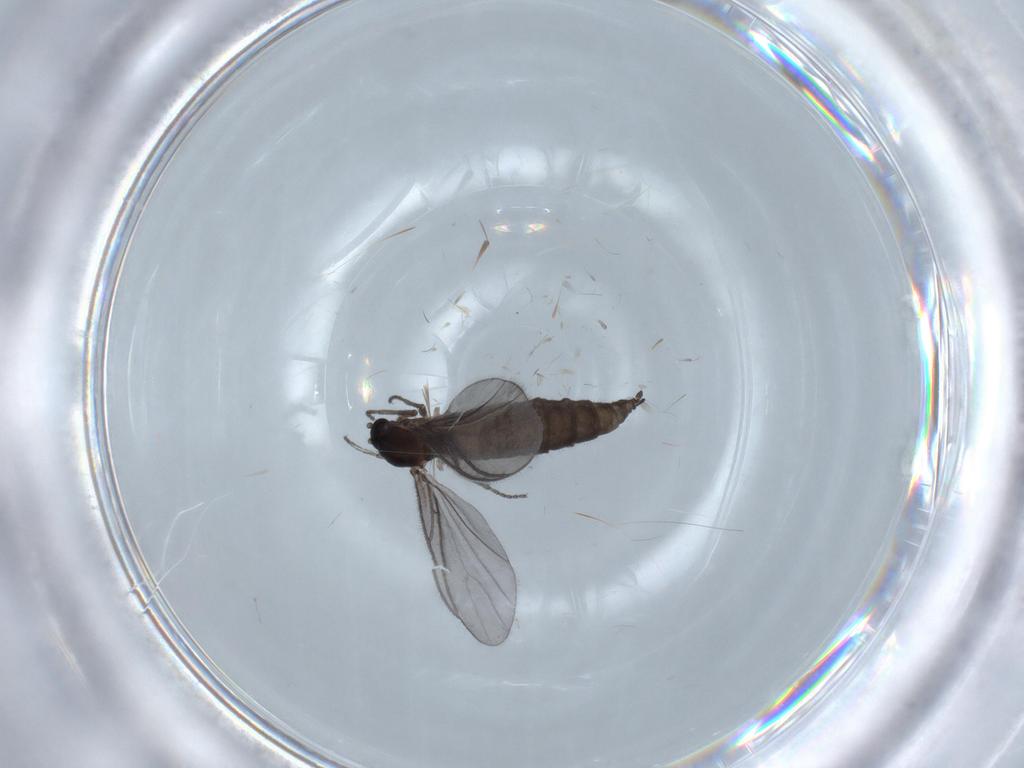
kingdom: Animalia
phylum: Arthropoda
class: Insecta
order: Diptera
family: Sciaridae
